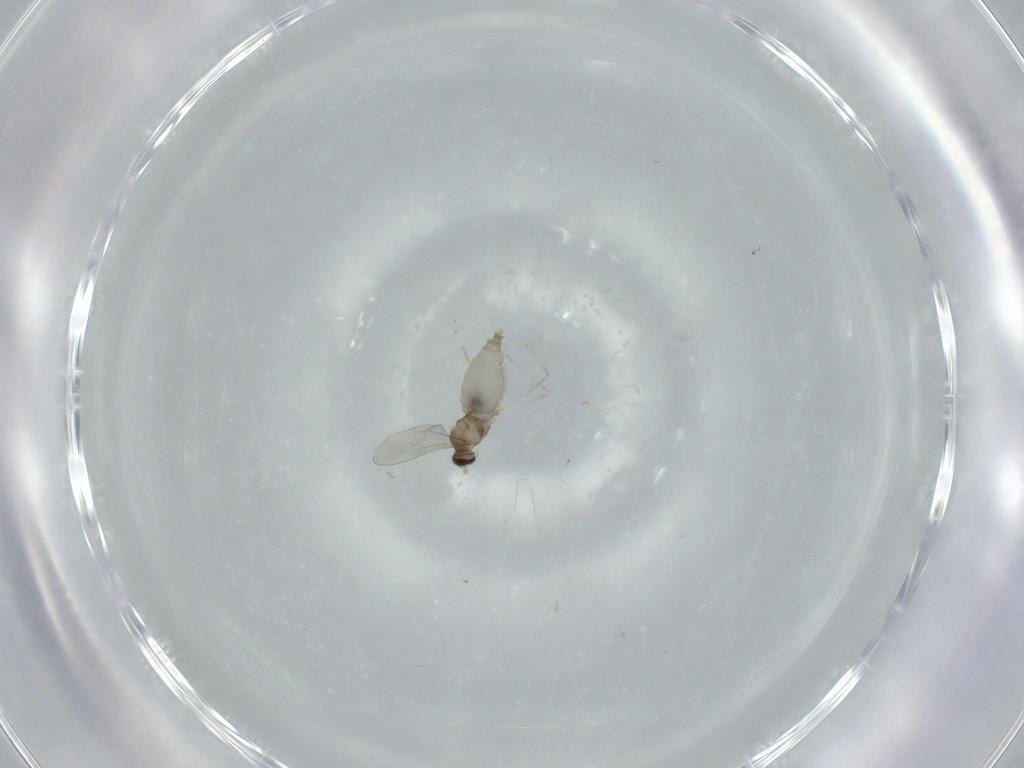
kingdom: Animalia
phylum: Arthropoda
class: Insecta
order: Diptera
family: Cecidomyiidae
